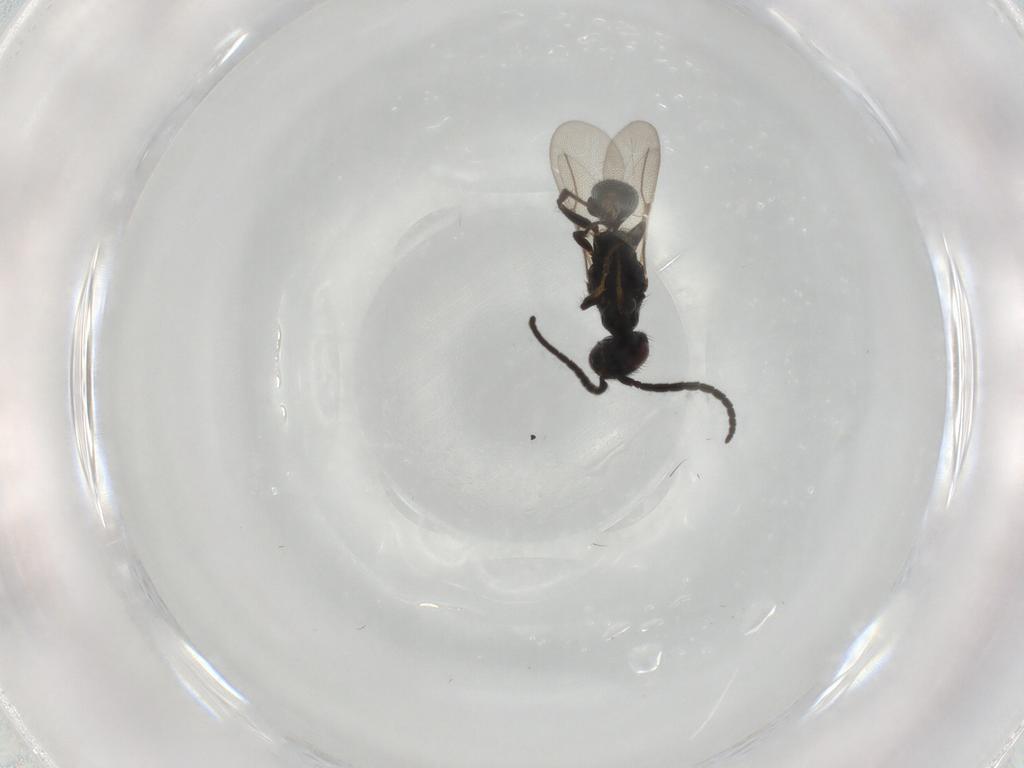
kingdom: Animalia
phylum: Arthropoda
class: Insecta
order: Hymenoptera
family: Bethylidae
